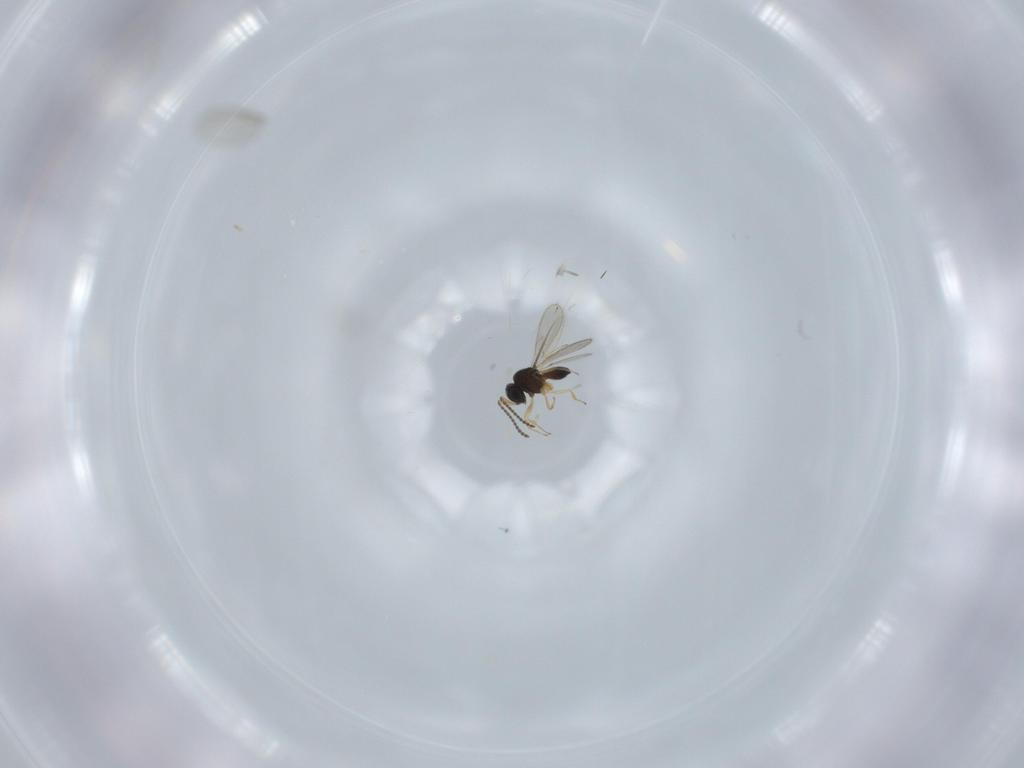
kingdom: Animalia
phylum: Arthropoda
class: Insecta
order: Hymenoptera
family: Scelionidae
